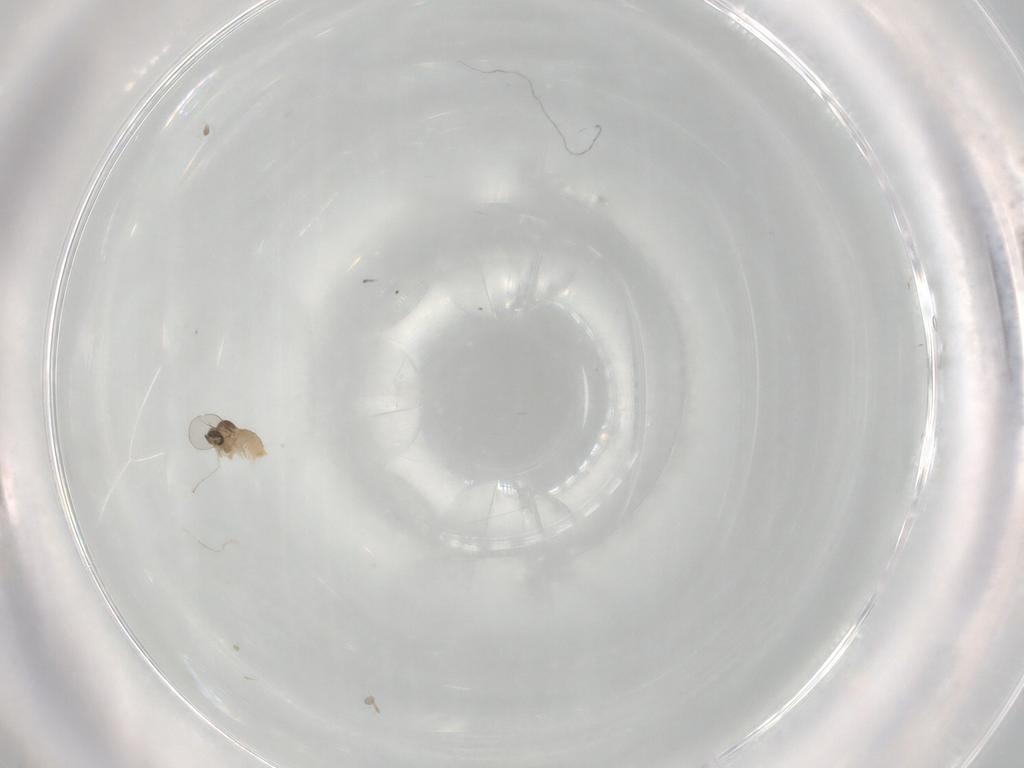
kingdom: Animalia
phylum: Arthropoda
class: Insecta
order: Diptera
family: Cecidomyiidae
